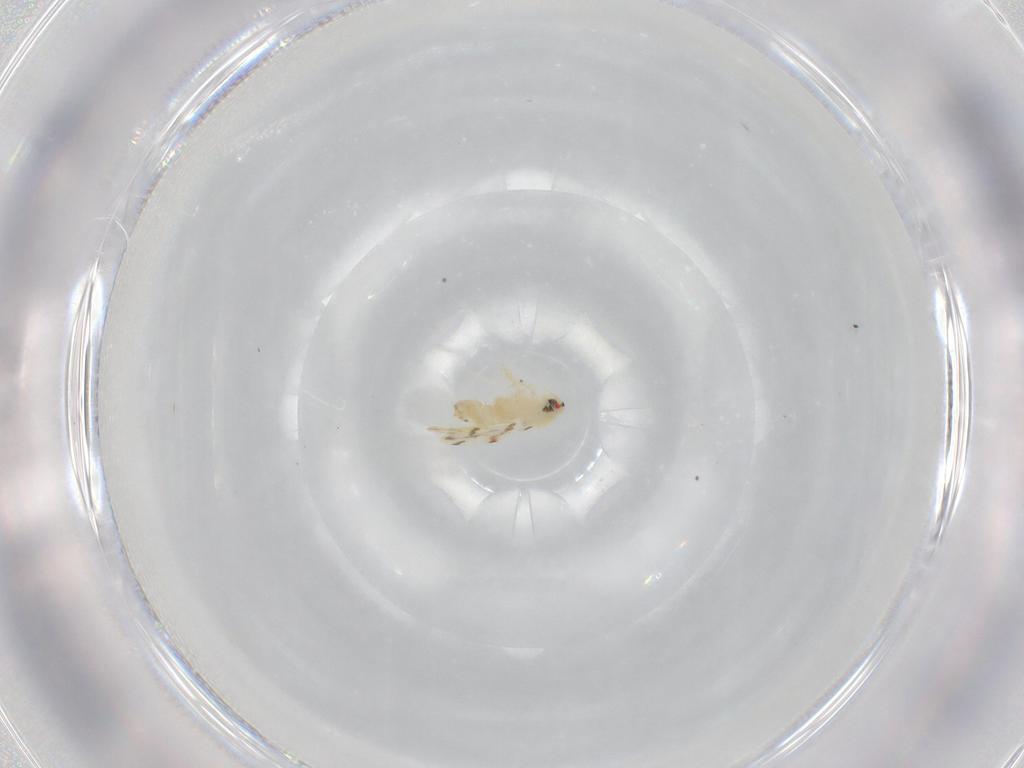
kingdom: Animalia
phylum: Arthropoda
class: Insecta
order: Hemiptera
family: Aleyrodidae
